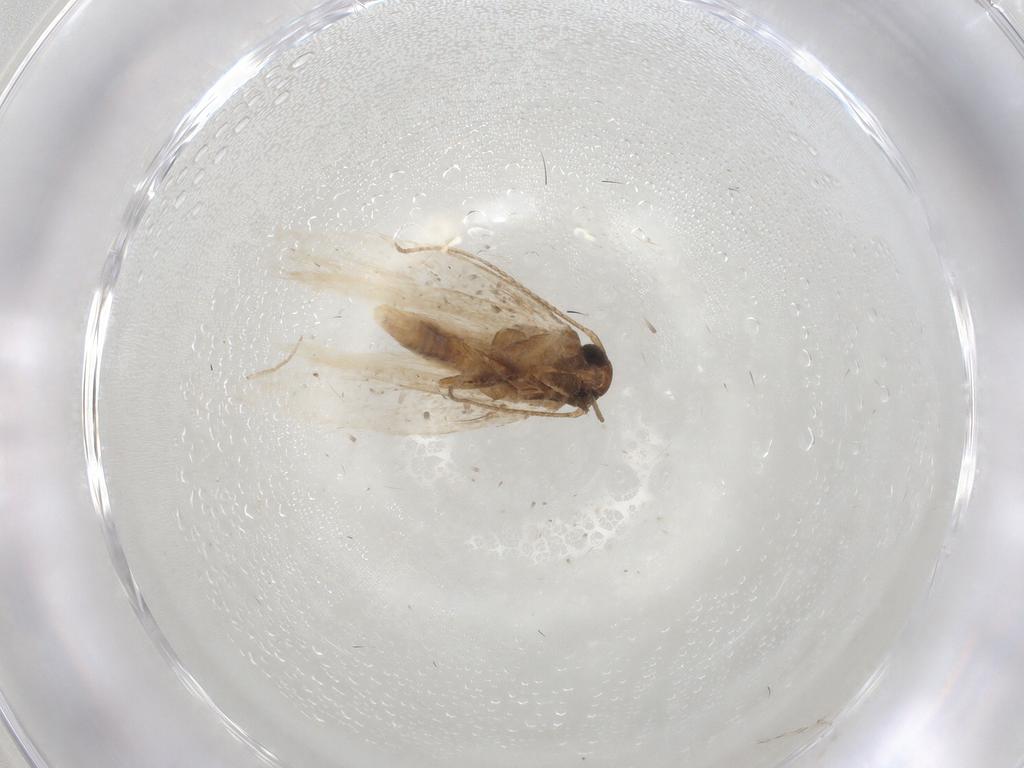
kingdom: Animalia
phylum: Arthropoda
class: Insecta
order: Lepidoptera
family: Gelechiidae
